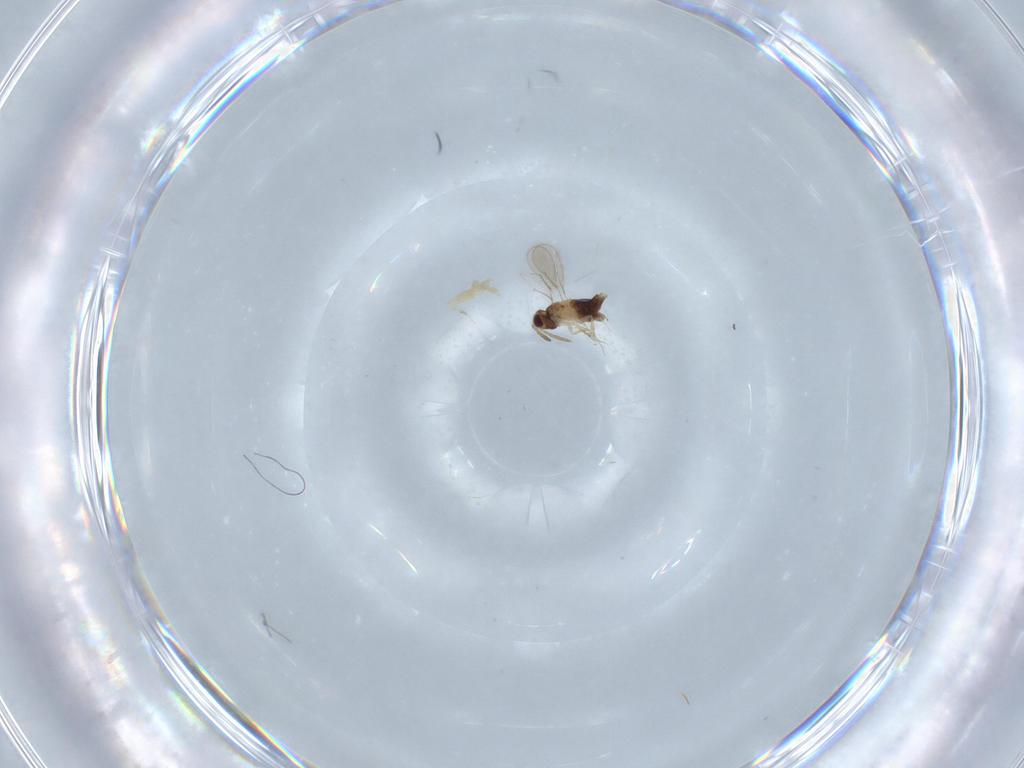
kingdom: Animalia
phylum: Arthropoda
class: Insecta
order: Hymenoptera
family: Aphelinidae
